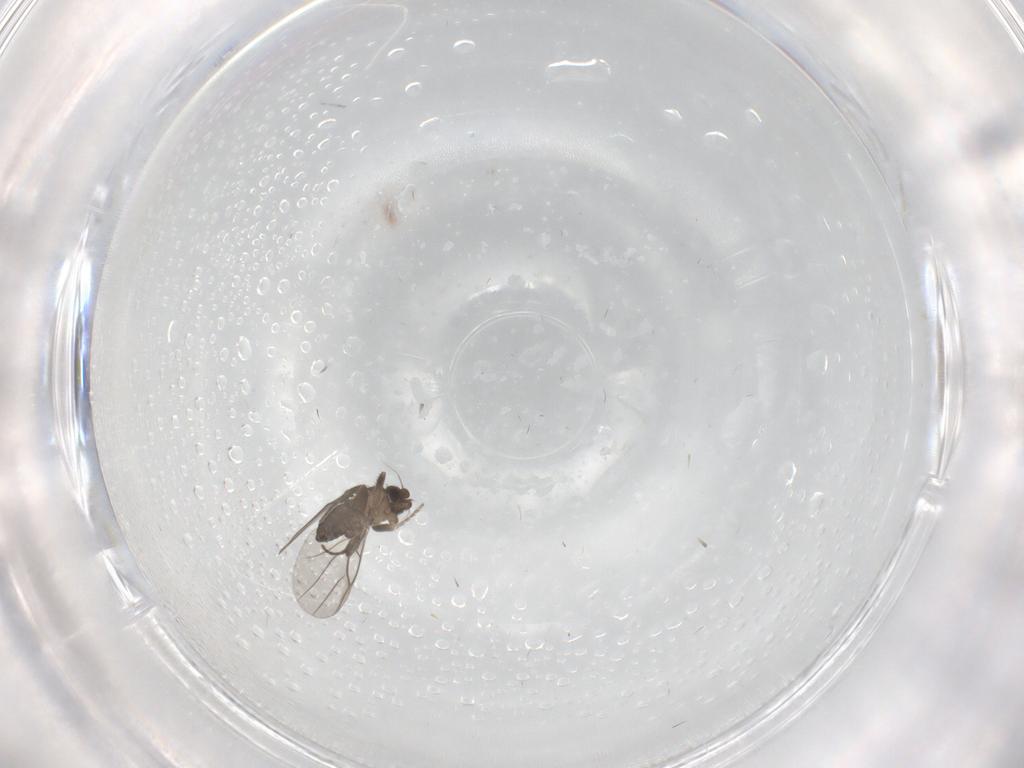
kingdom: Animalia
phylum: Arthropoda
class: Insecta
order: Diptera
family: Phoridae
